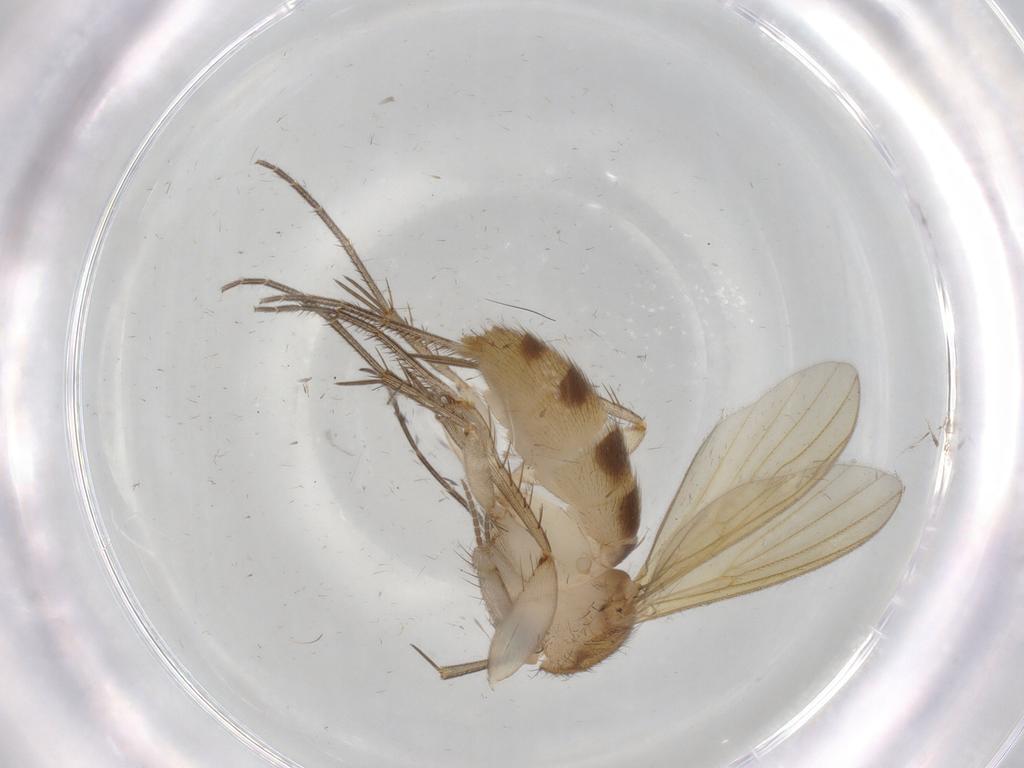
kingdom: Animalia
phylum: Arthropoda
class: Insecta
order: Diptera
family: Mycetophilidae
